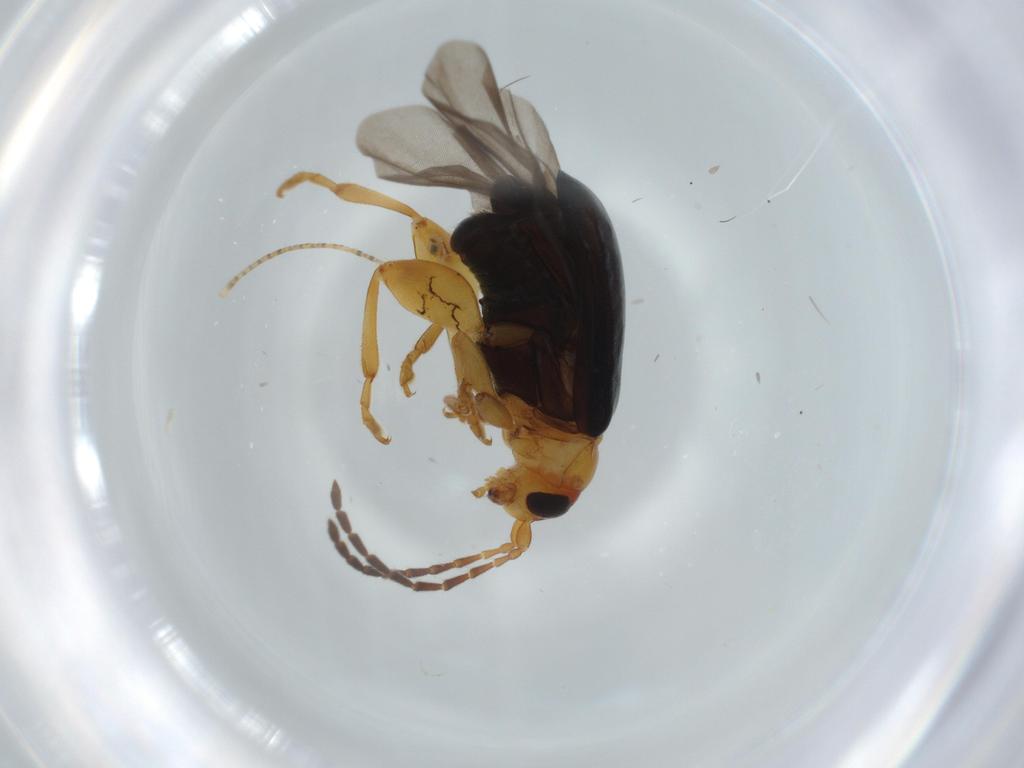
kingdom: Animalia
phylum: Arthropoda
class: Insecta
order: Coleoptera
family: Chrysomelidae
